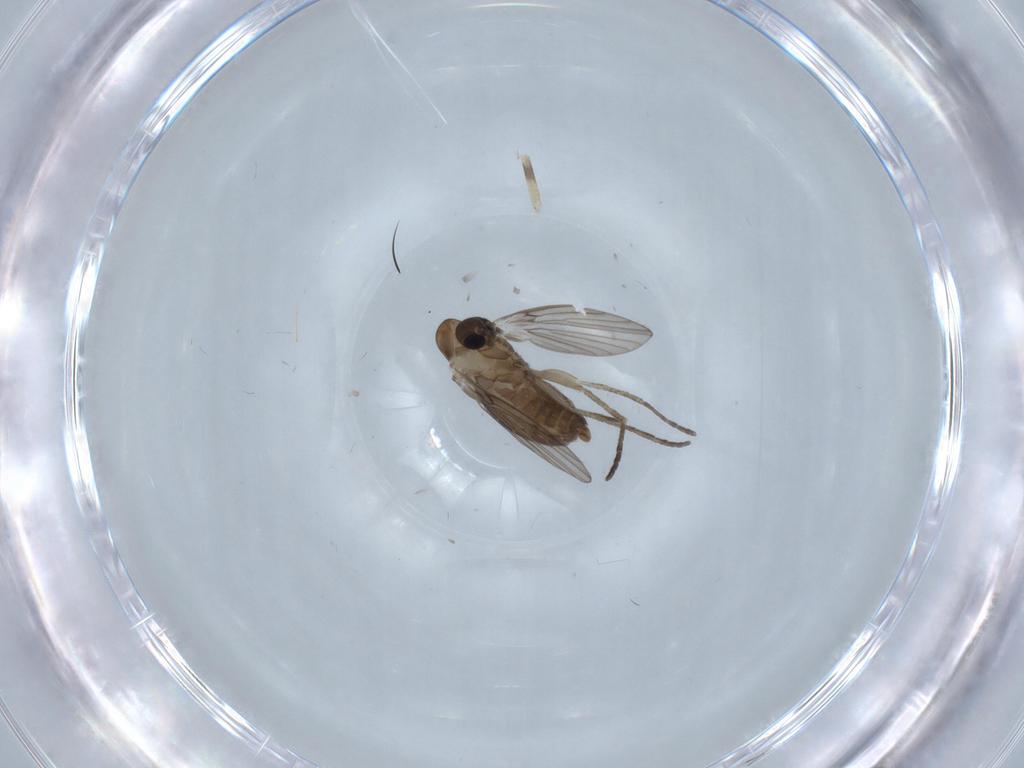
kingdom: Animalia
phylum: Arthropoda
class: Insecta
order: Diptera
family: Psychodidae
